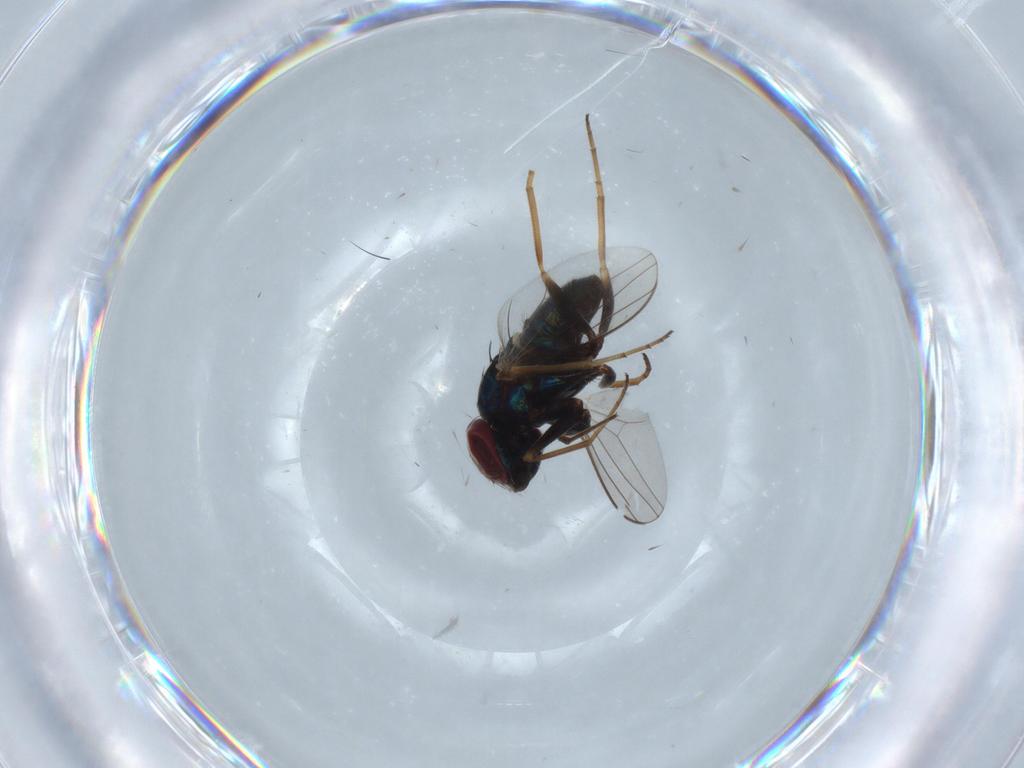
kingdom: Animalia
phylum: Arthropoda
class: Insecta
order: Diptera
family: Dolichopodidae
